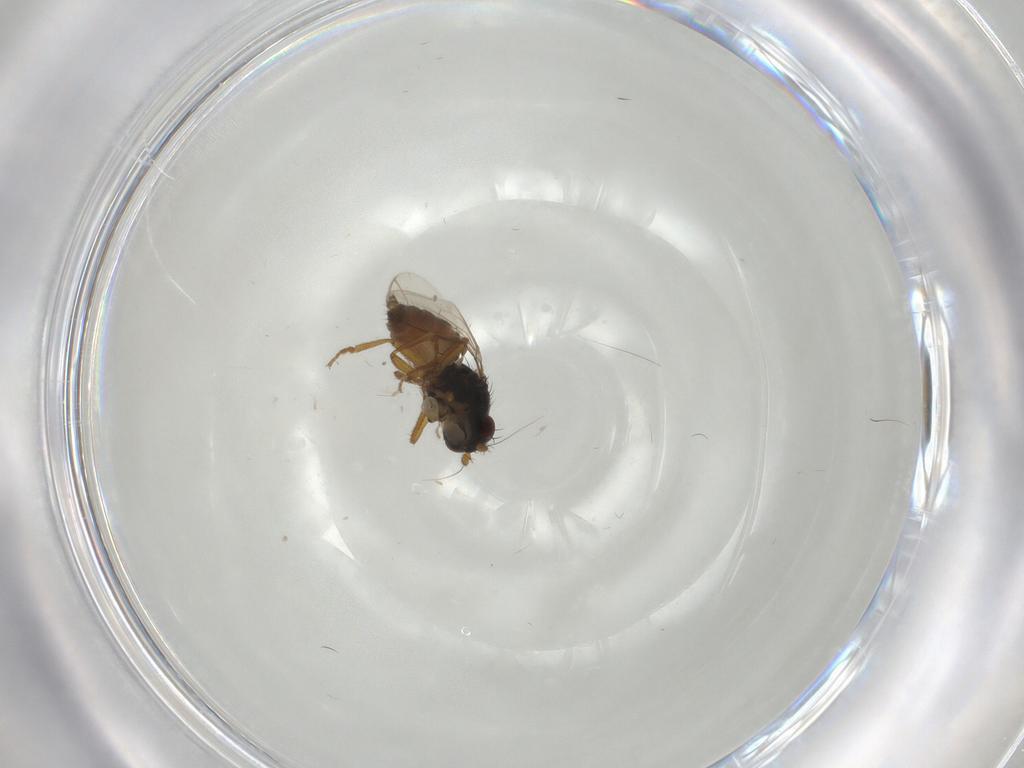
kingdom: Animalia
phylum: Arthropoda
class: Insecta
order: Diptera
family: Sphaeroceridae
